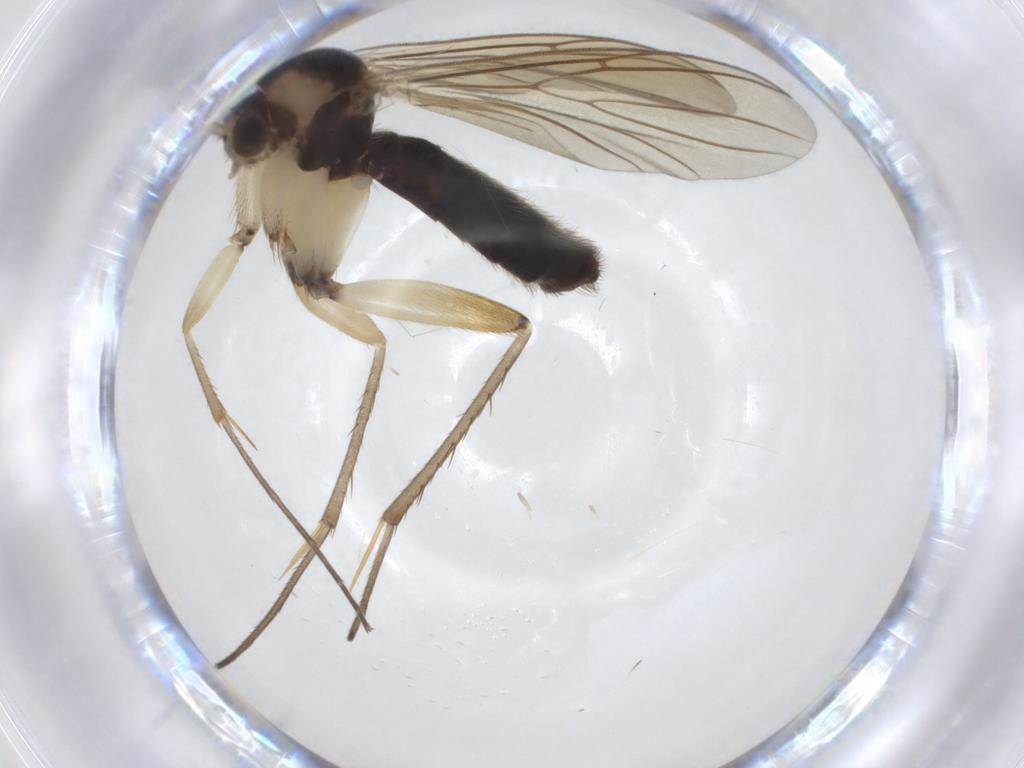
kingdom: Animalia
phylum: Arthropoda
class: Insecta
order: Diptera
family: Mycetophilidae
